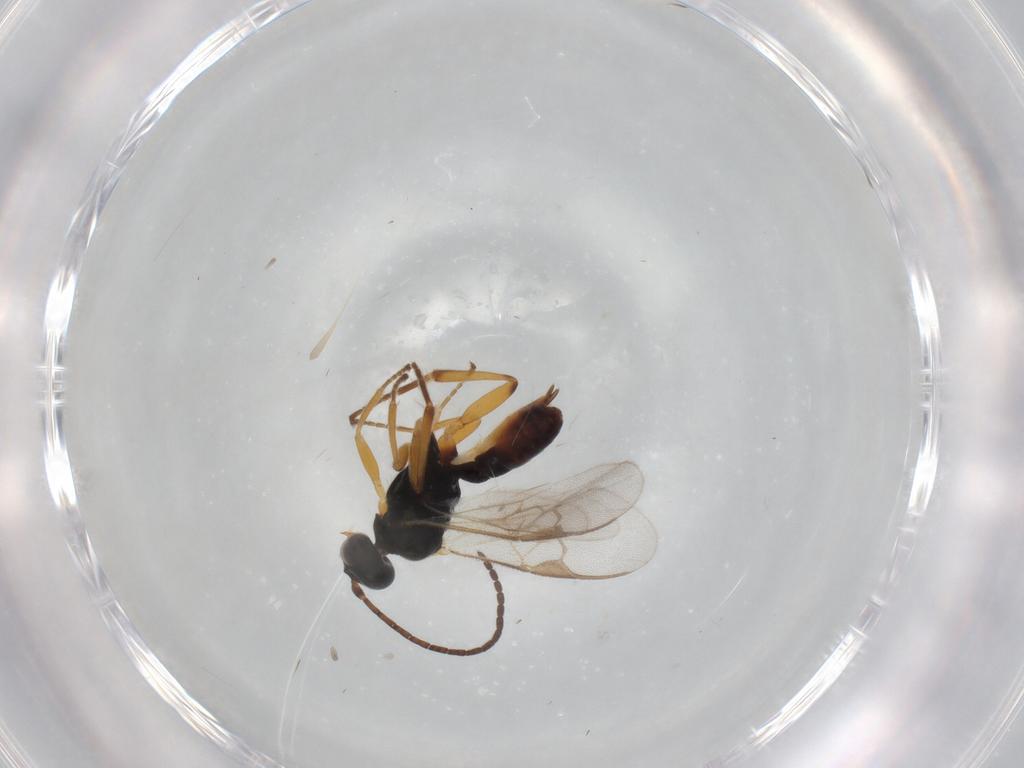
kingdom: Animalia
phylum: Arthropoda
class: Insecta
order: Hymenoptera
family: Braconidae
